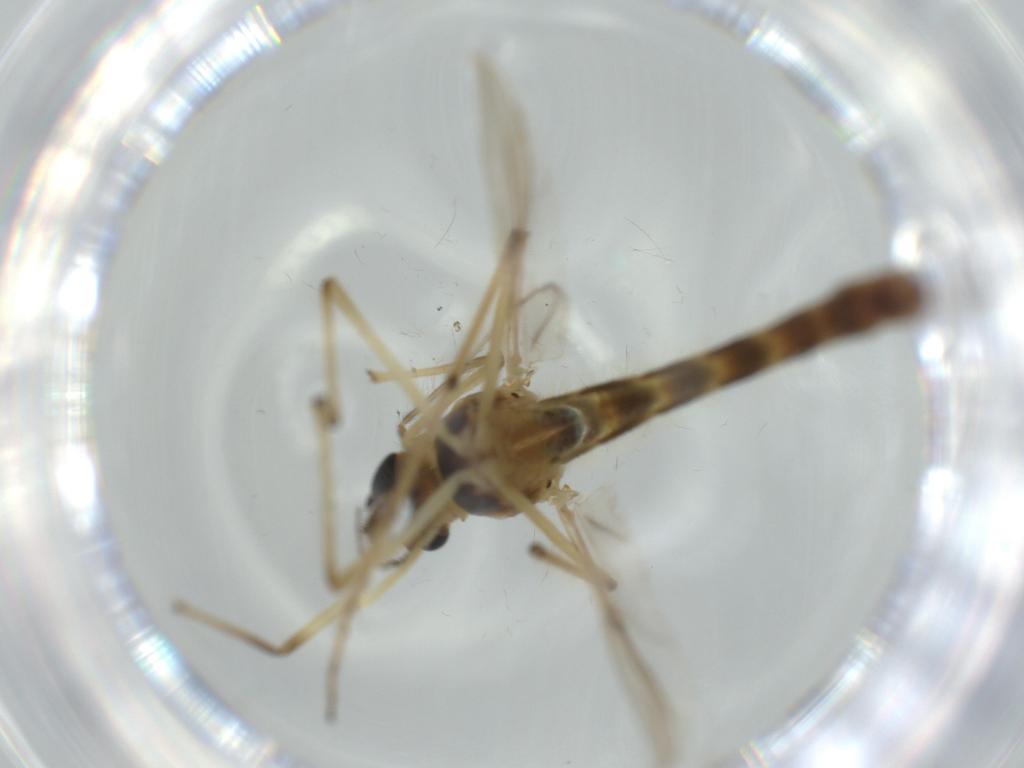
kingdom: Animalia
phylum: Arthropoda
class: Insecta
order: Diptera
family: Chironomidae
